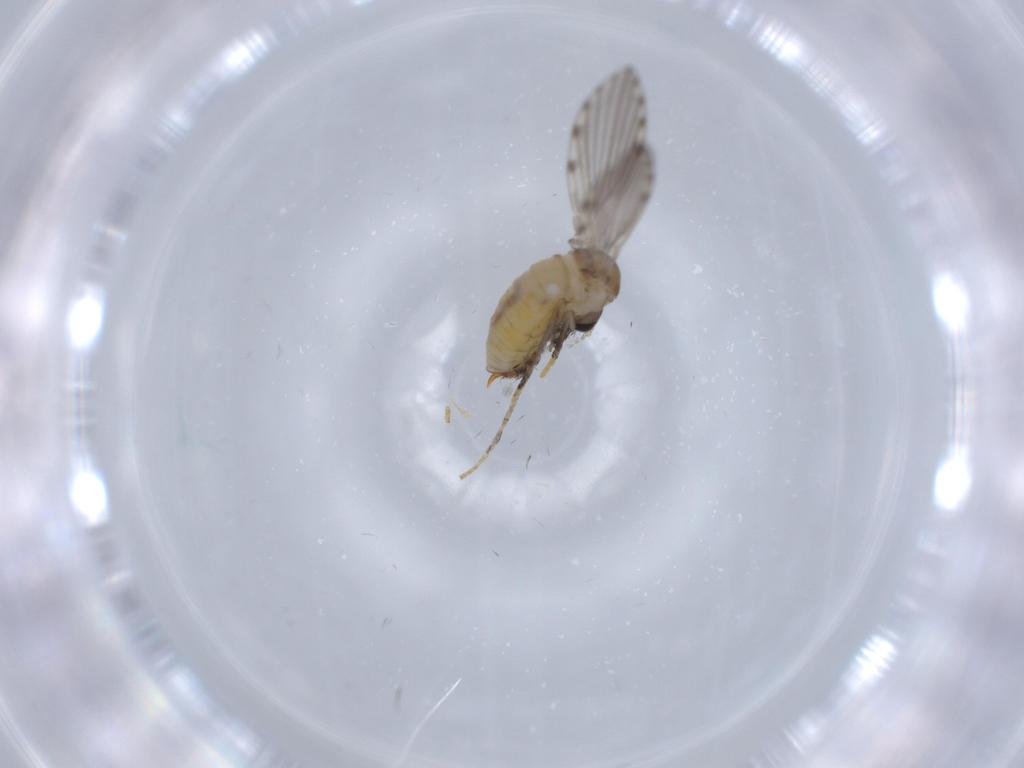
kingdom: Animalia
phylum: Arthropoda
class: Insecta
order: Diptera
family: Psychodidae
